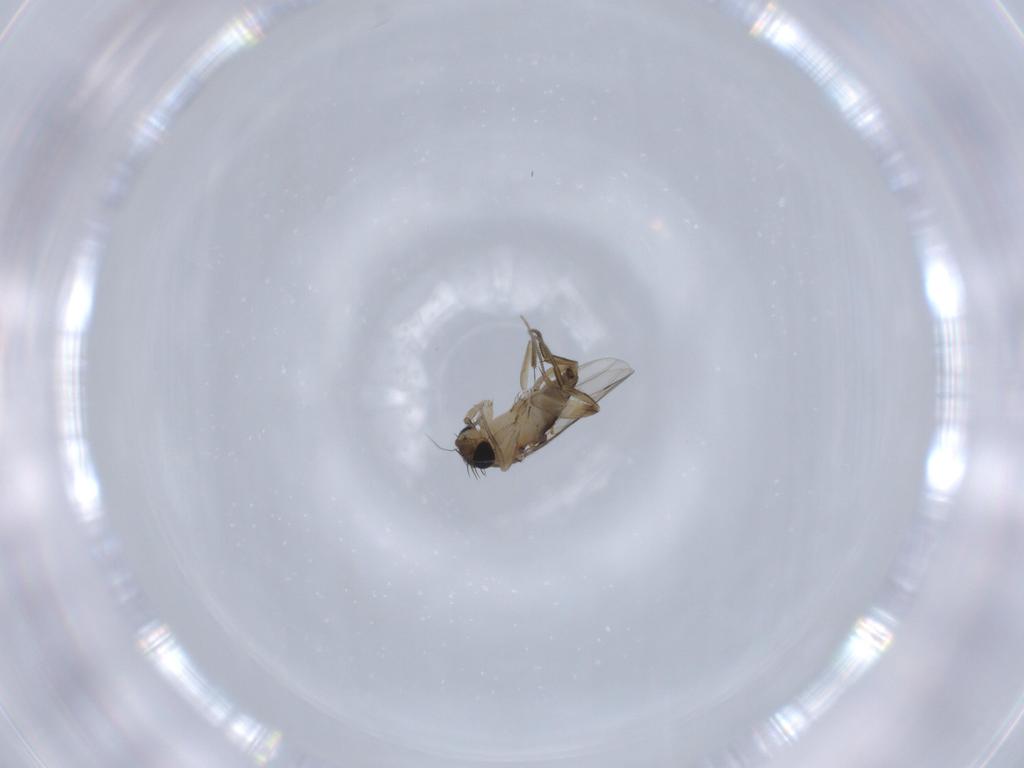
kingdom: Animalia
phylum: Arthropoda
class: Insecta
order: Diptera
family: Phoridae
